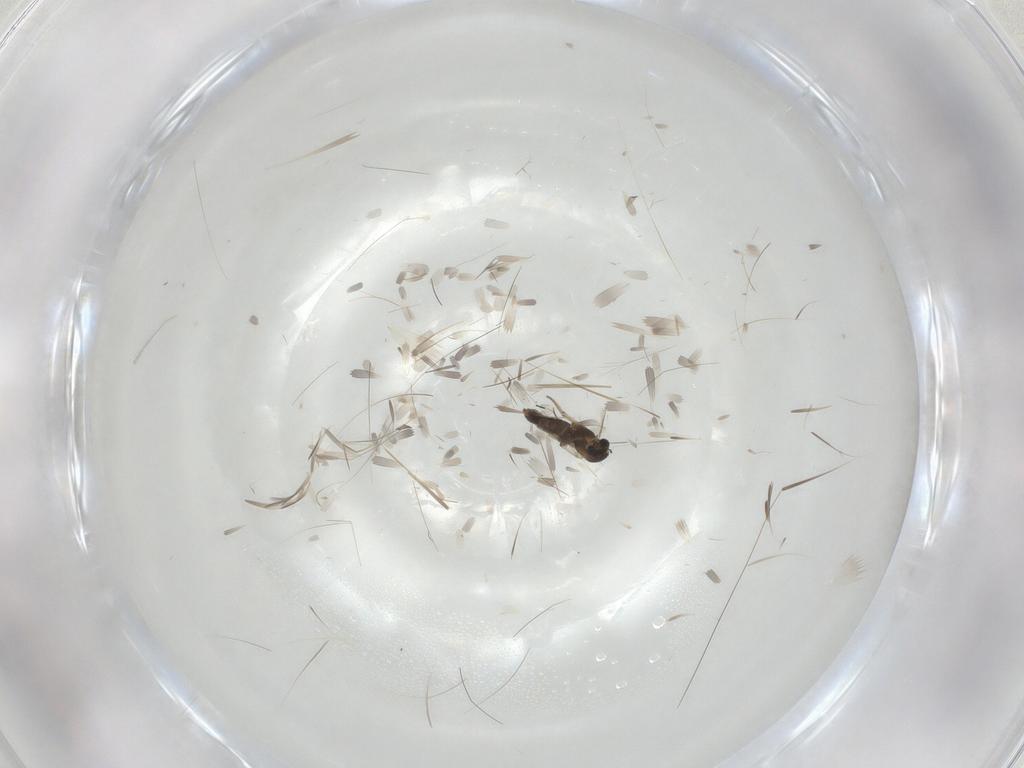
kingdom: Animalia
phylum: Arthropoda
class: Insecta
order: Diptera
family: Chironomidae
